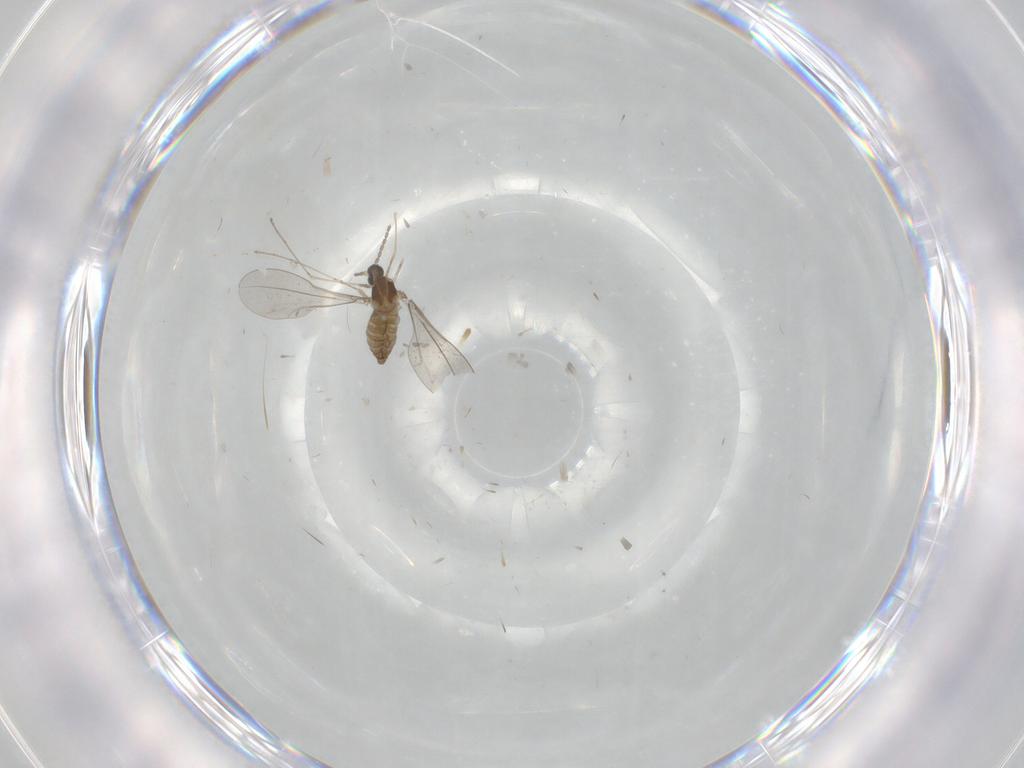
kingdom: Animalia
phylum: Arthropoda
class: Insecta
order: Diptera
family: Cecidomyiidae
